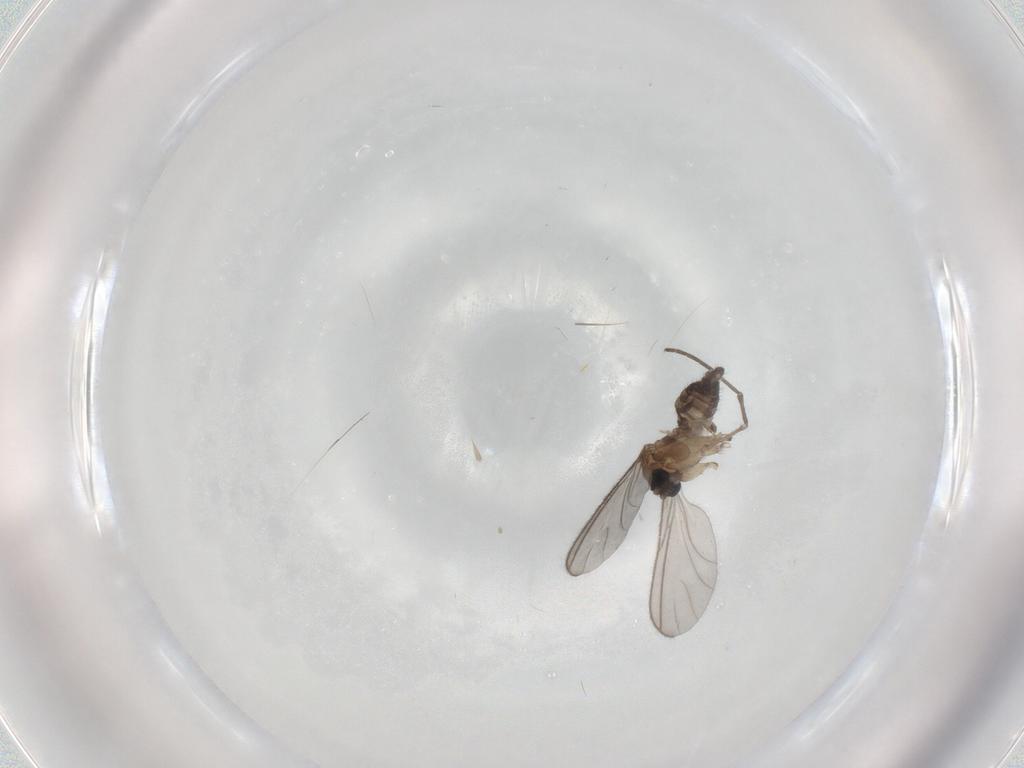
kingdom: Animalia
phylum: Arthropoda
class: Insecta
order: Diptera
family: Sciaridae
